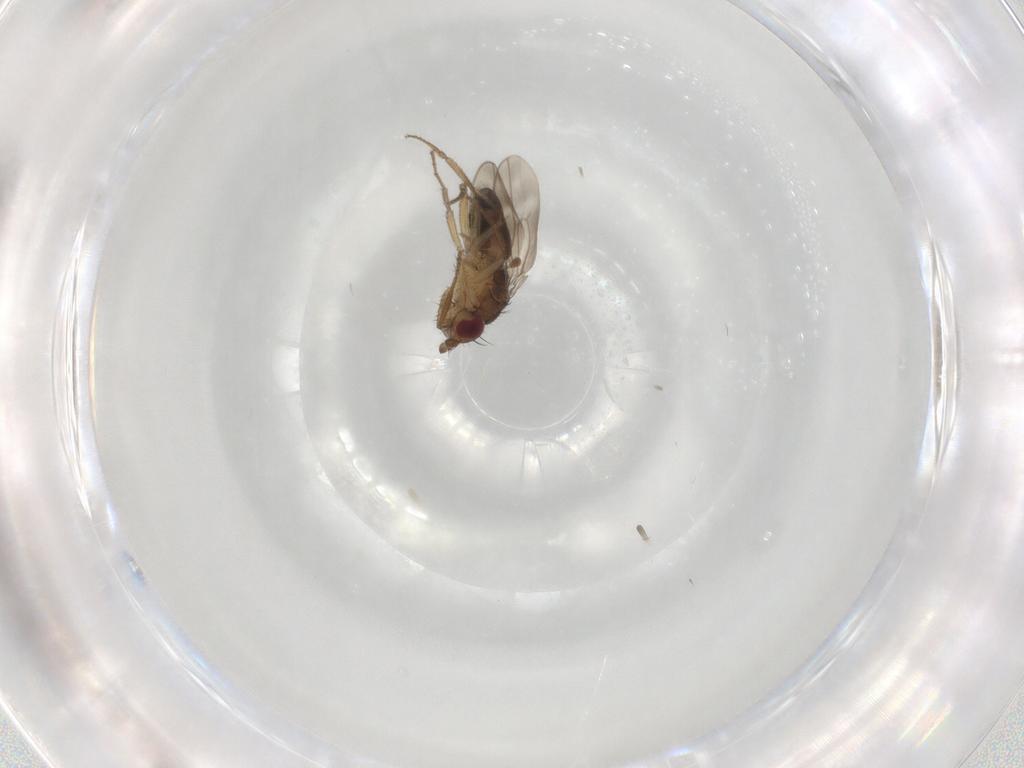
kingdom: Animalia
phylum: Arthropoda
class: Insecta
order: Diptera
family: Sphaeroceridae
